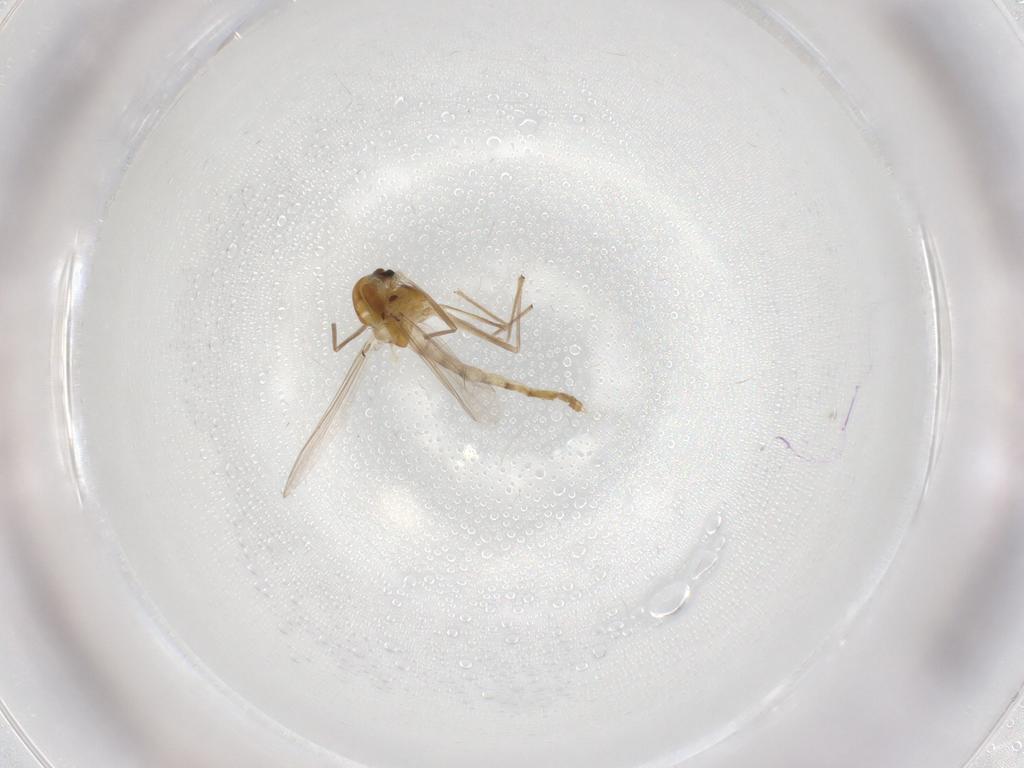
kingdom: Animalia
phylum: Arthropoda
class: Insecta
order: Diptera
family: Chironomidae
